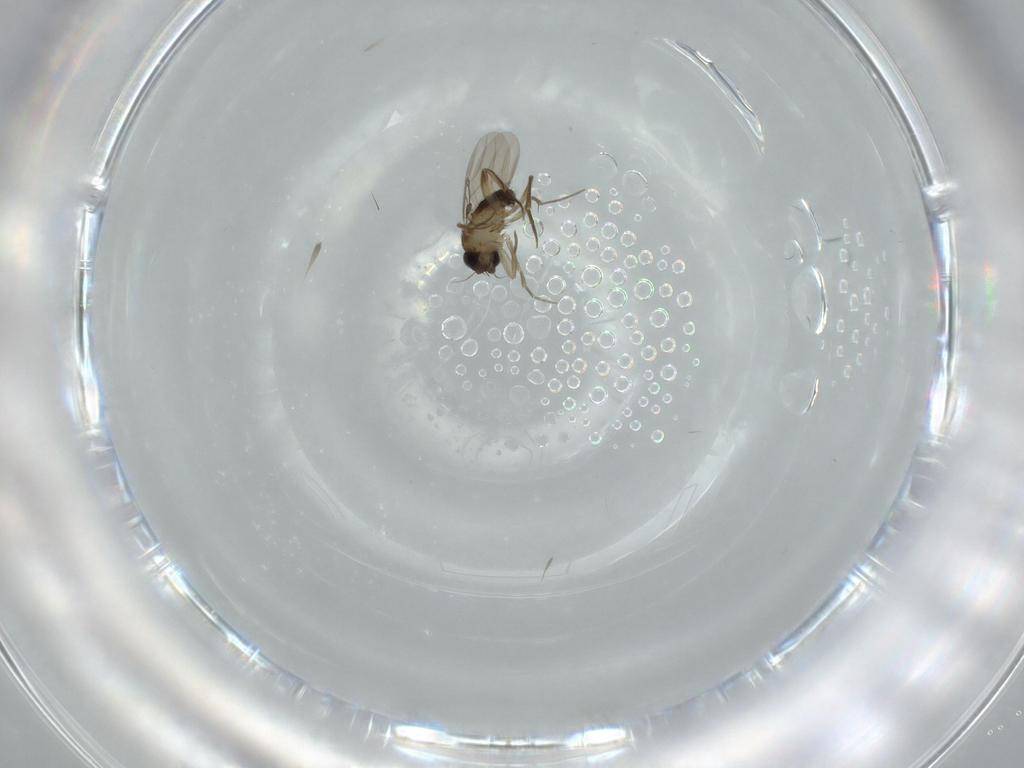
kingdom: Animalia
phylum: Arthropoda
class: Insecta
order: Diptera
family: Phoridae
